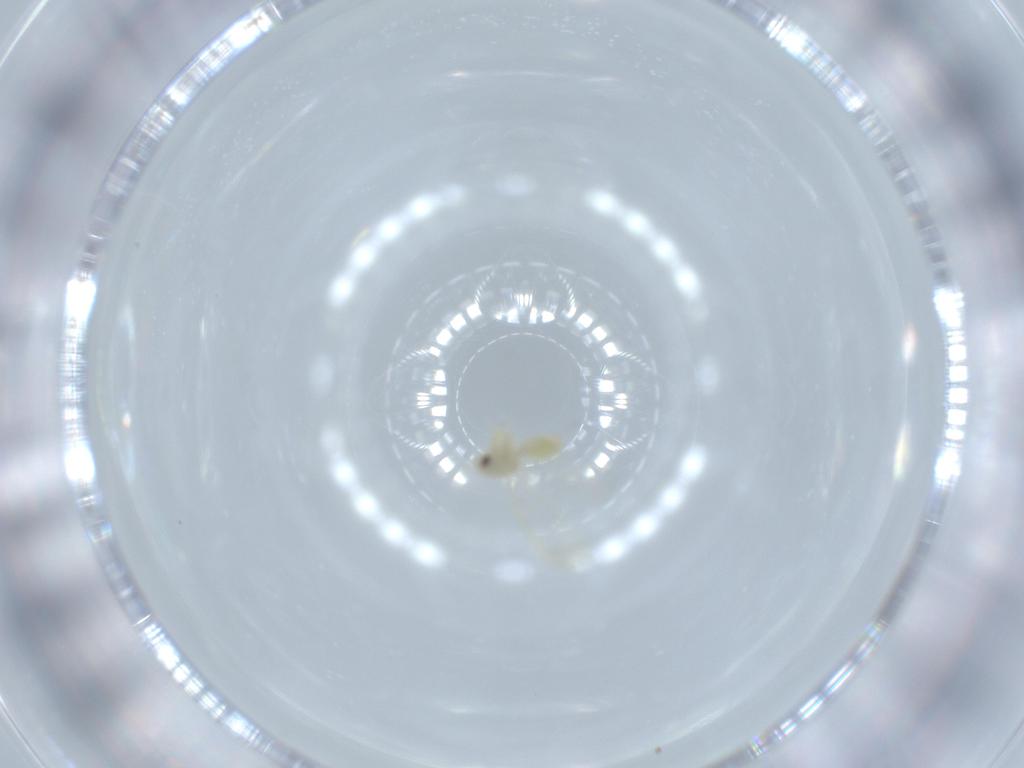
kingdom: Animalia
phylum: Arthropoda
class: Insecta
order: Hemiptera
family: Aleyrodidae
